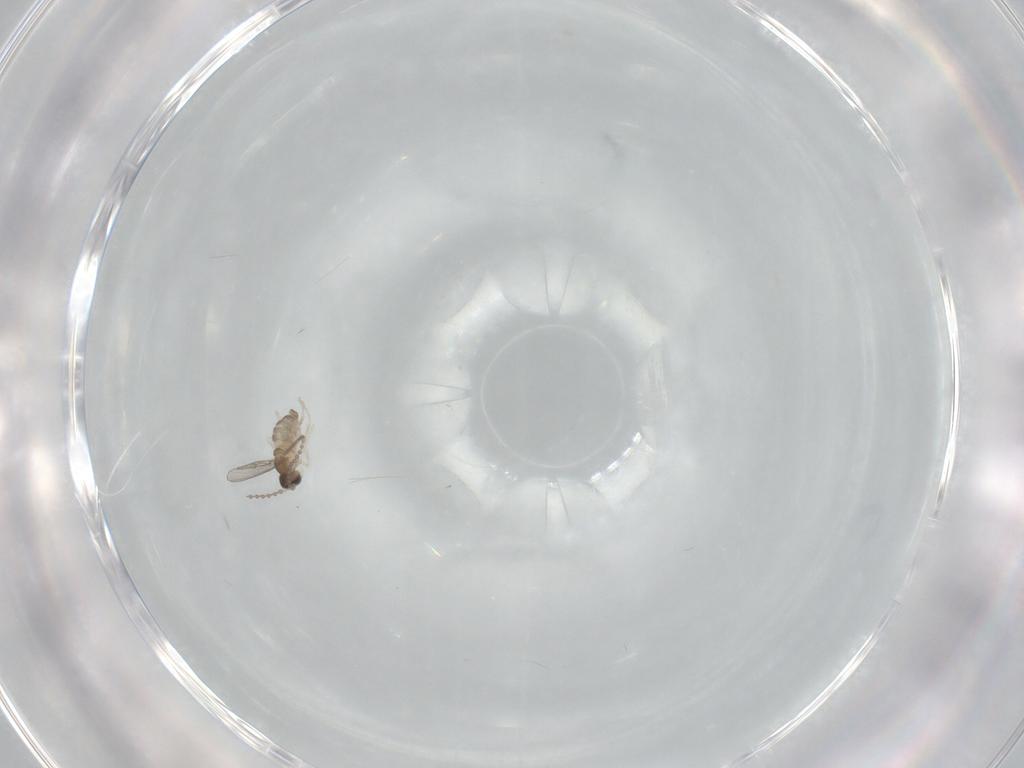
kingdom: Animalia
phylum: Arthropoda
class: Insecta
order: Diptera
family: Cecidomyiidae
